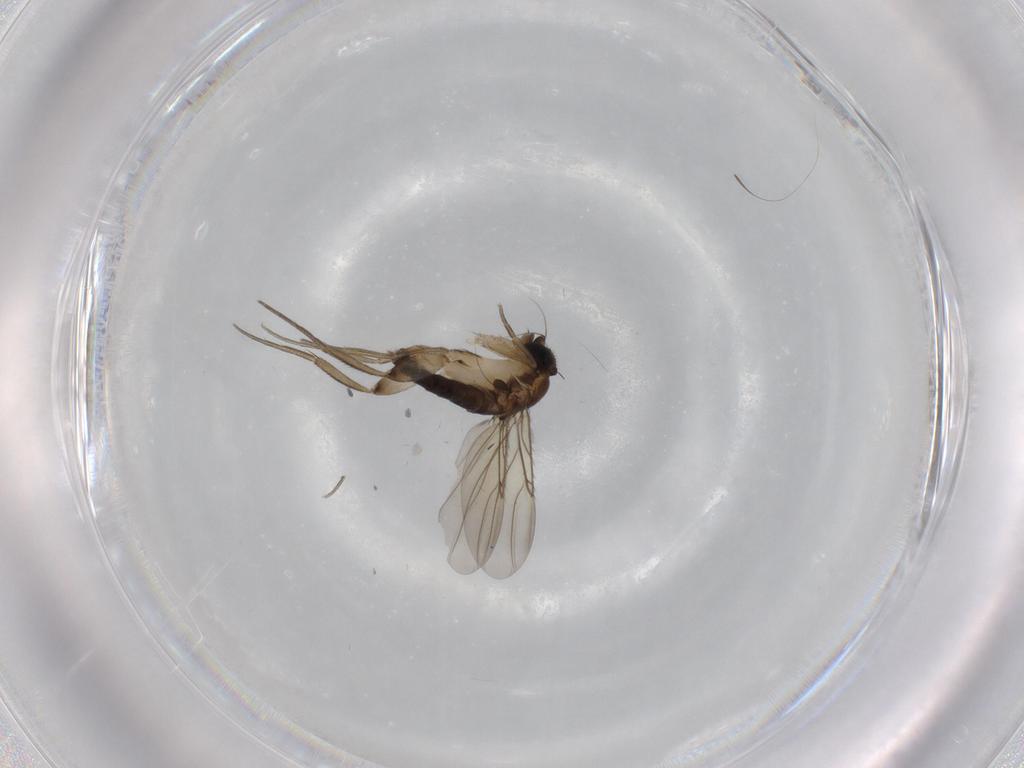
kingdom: Animalia
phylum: Arthropoda
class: Insecta
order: Diptera
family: Phoridae
